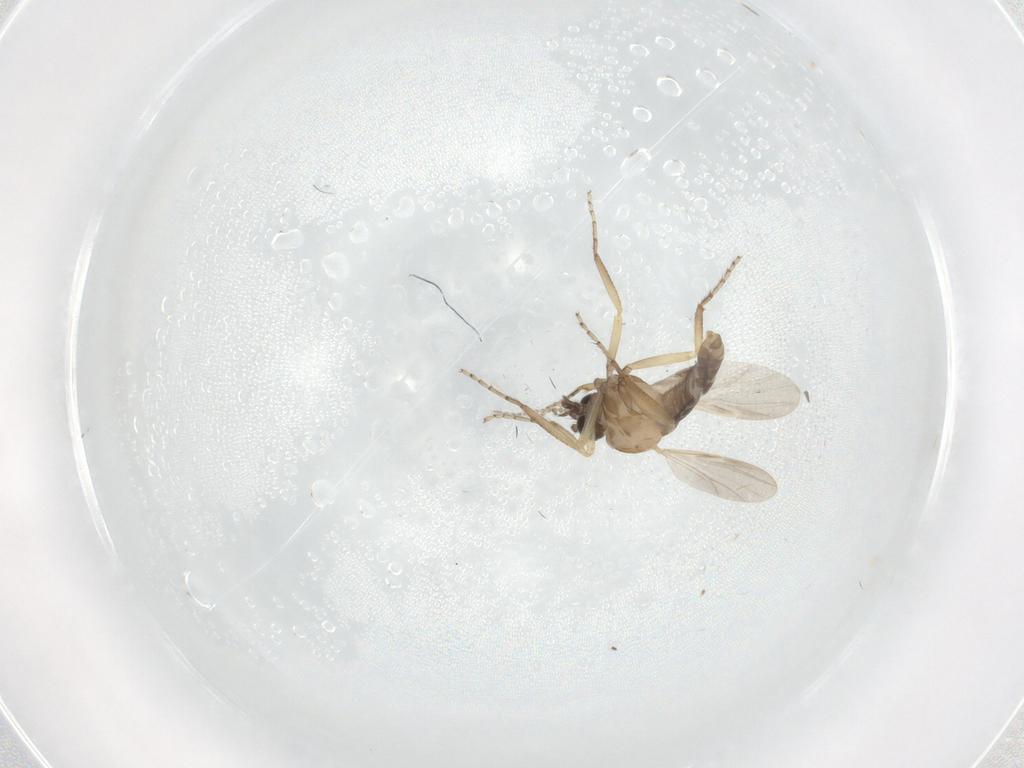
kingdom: Animalia
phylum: Arthropoda
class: Insecta
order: Diptera
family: Ceratopogonidae
